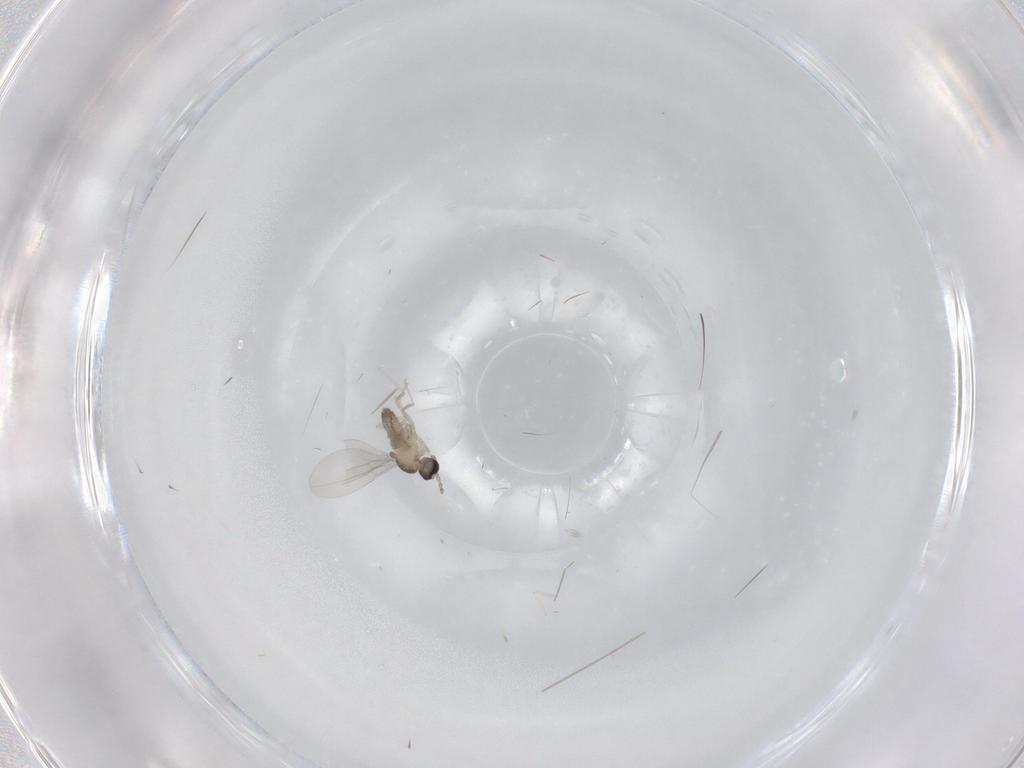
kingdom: Animalia
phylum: Arthropoda
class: Insecta
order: Diptera
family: Cecidomyiidae
